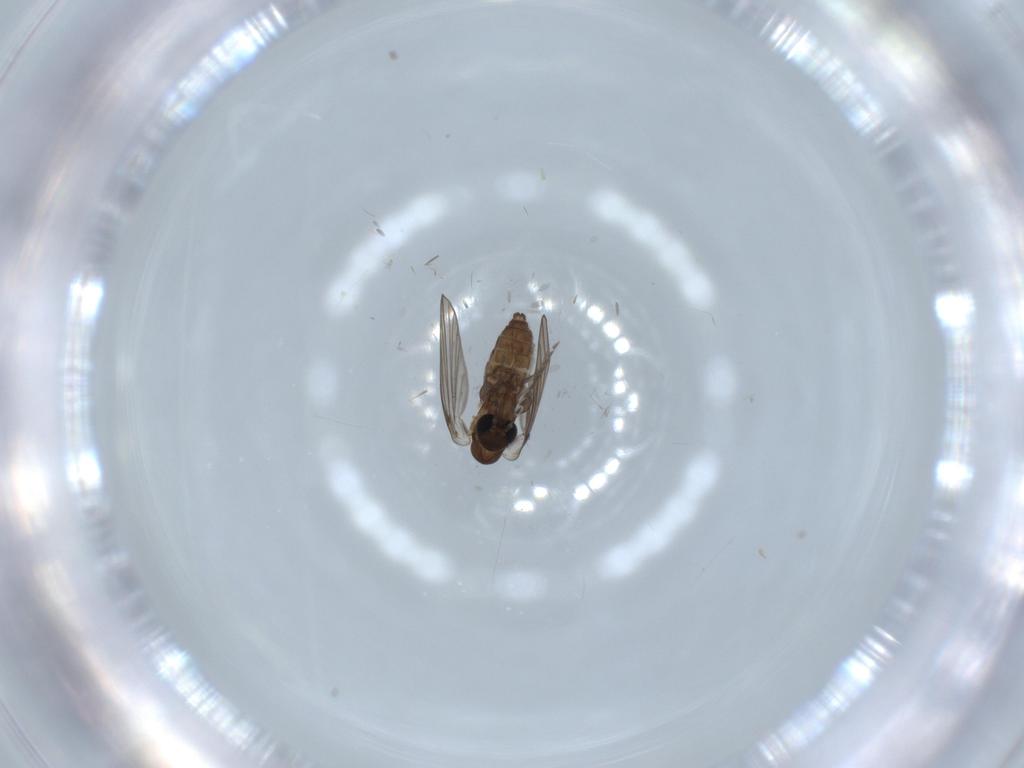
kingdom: Animalia
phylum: Arthropoda
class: Insecta
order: Diptera
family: Psychodidae
